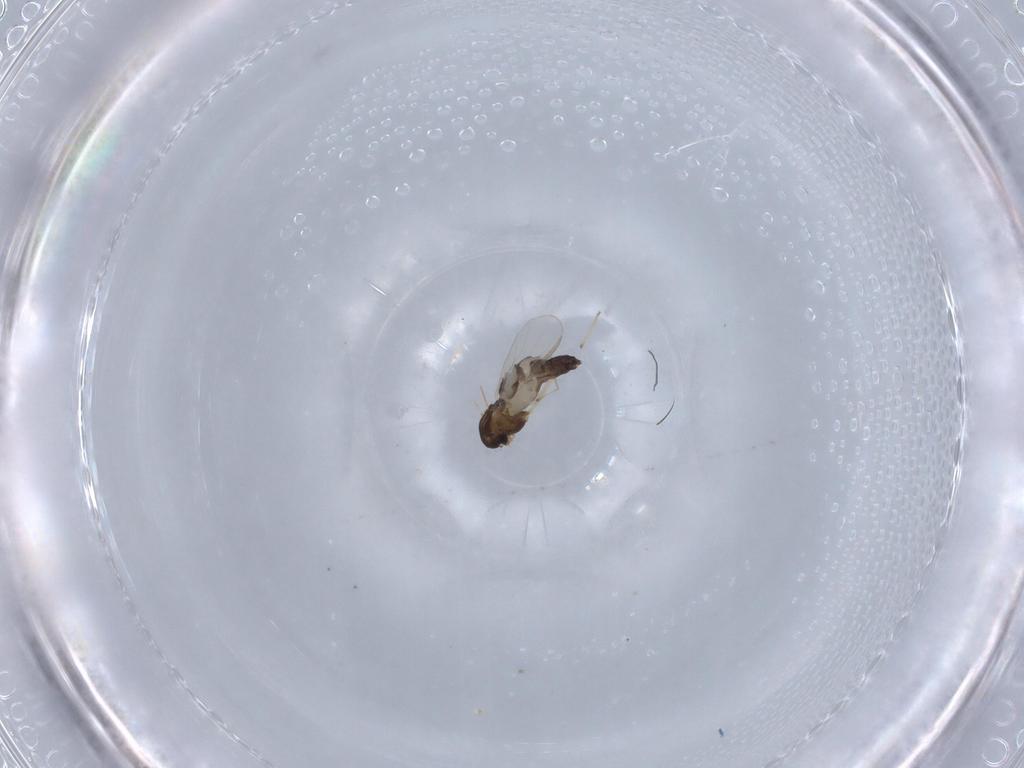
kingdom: Animalia
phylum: Arthropoda
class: Insecta
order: Diptera
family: Chironomidae
